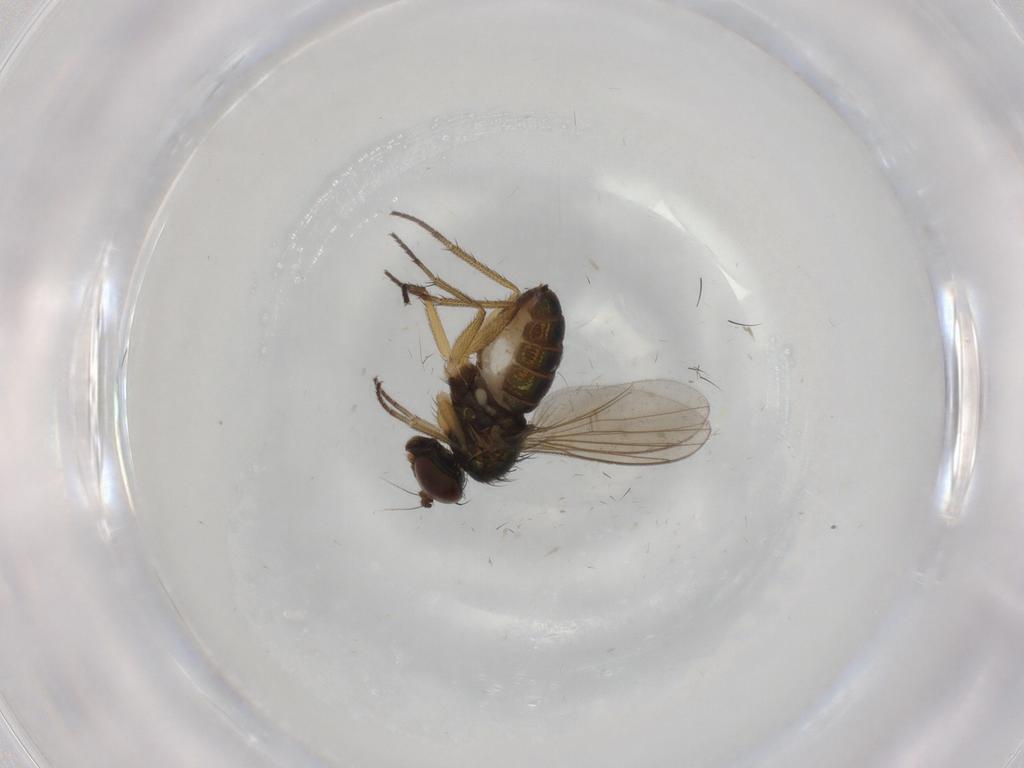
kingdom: Animalia
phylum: Arthropoda
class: Insecta
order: Diptera
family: Dolichopodidae
